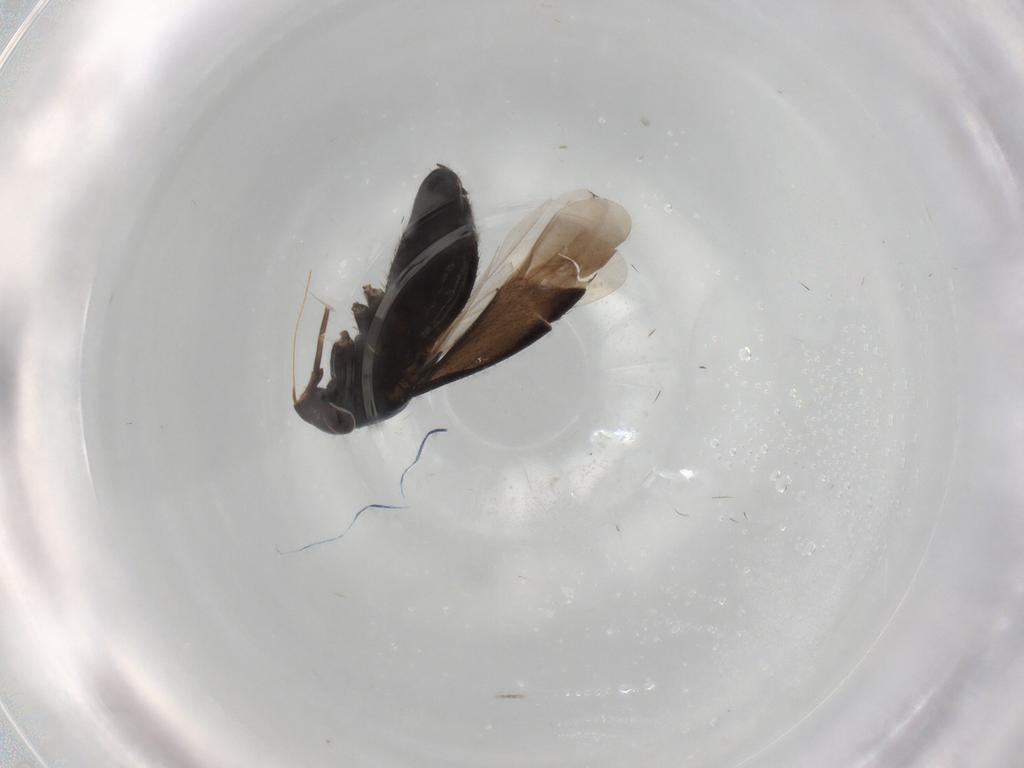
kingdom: Animalia
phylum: Arthropoda
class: Insecta
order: Hemiptera
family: Miridae
